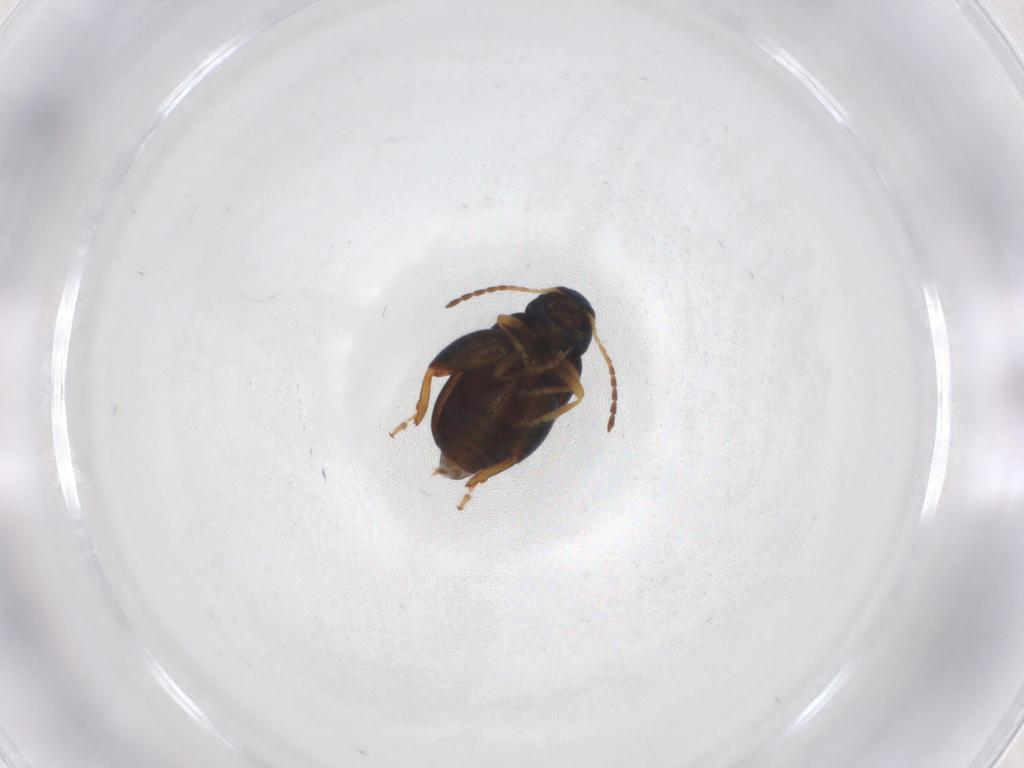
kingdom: Animalia
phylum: Arthropoda
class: Insecta
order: Coleoptera
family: Chrysomelidae
